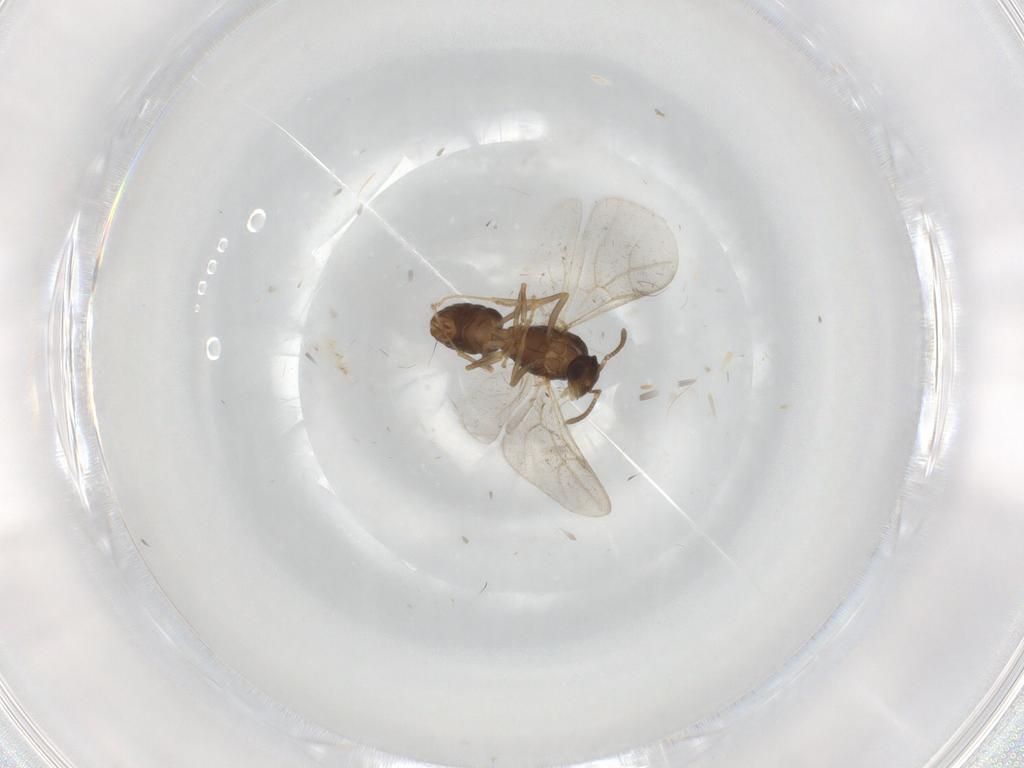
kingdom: Animalia
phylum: Arthropoda
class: Insecta
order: Hymenoptera
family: Formicidae
